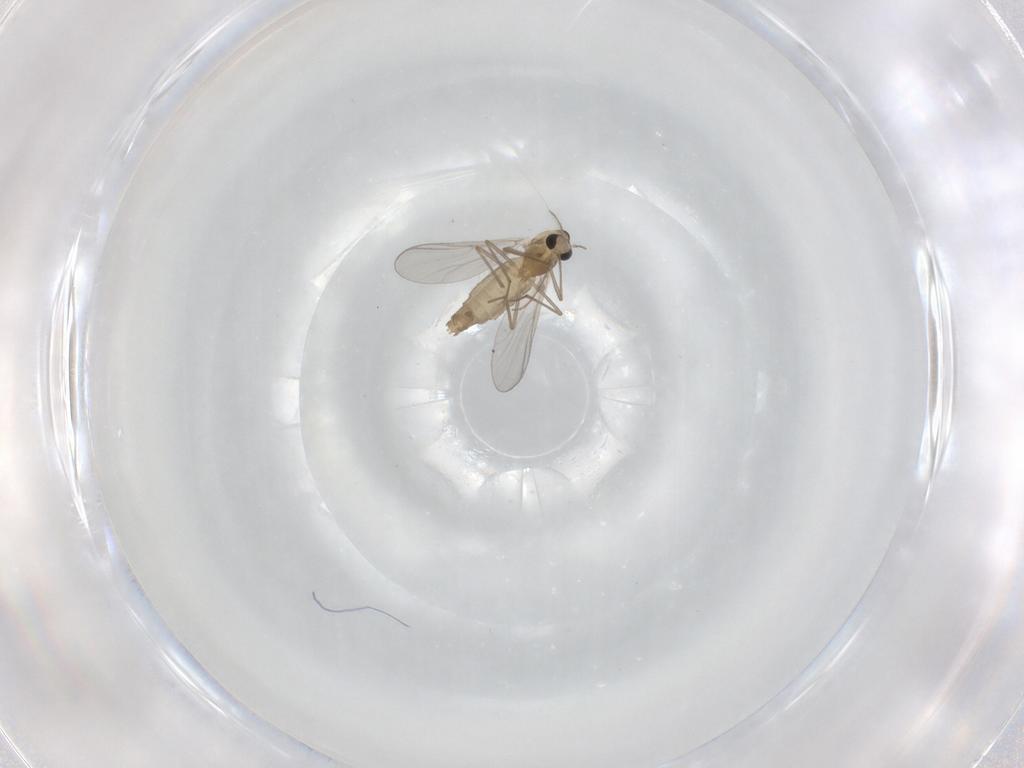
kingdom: Animalia
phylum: Arthropoda
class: Insecta
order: Diptera
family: Chironomidae
